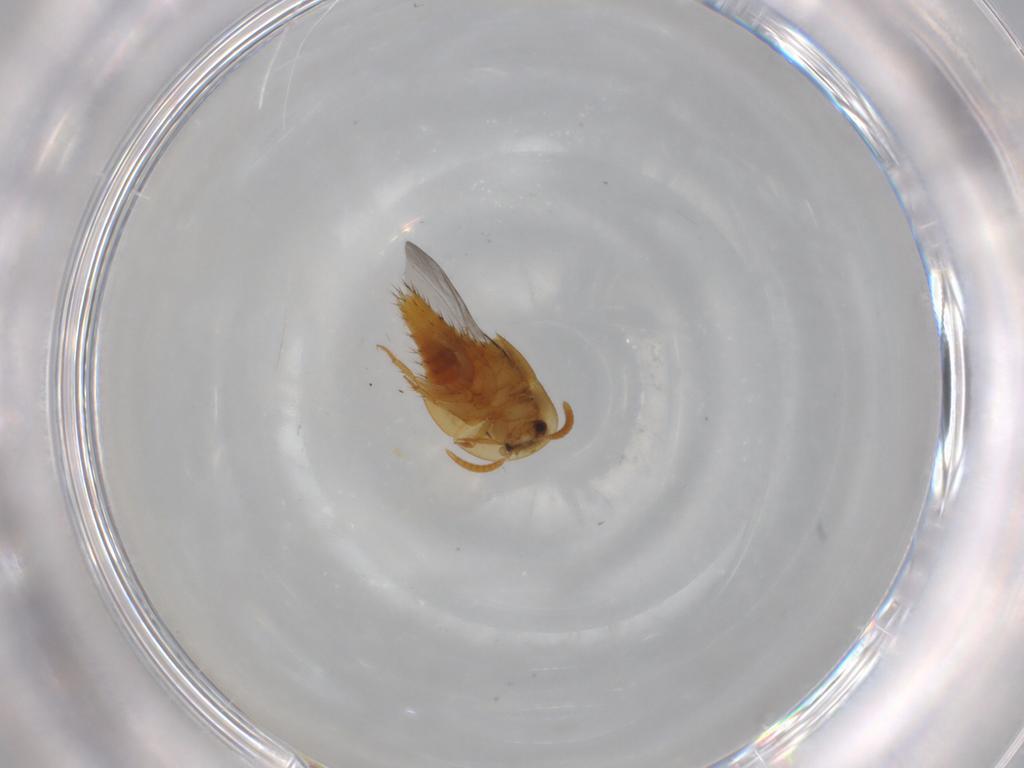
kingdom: Animalia
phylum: Arthropoda
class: Insecta
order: Coleoptera
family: Staphylinidae
